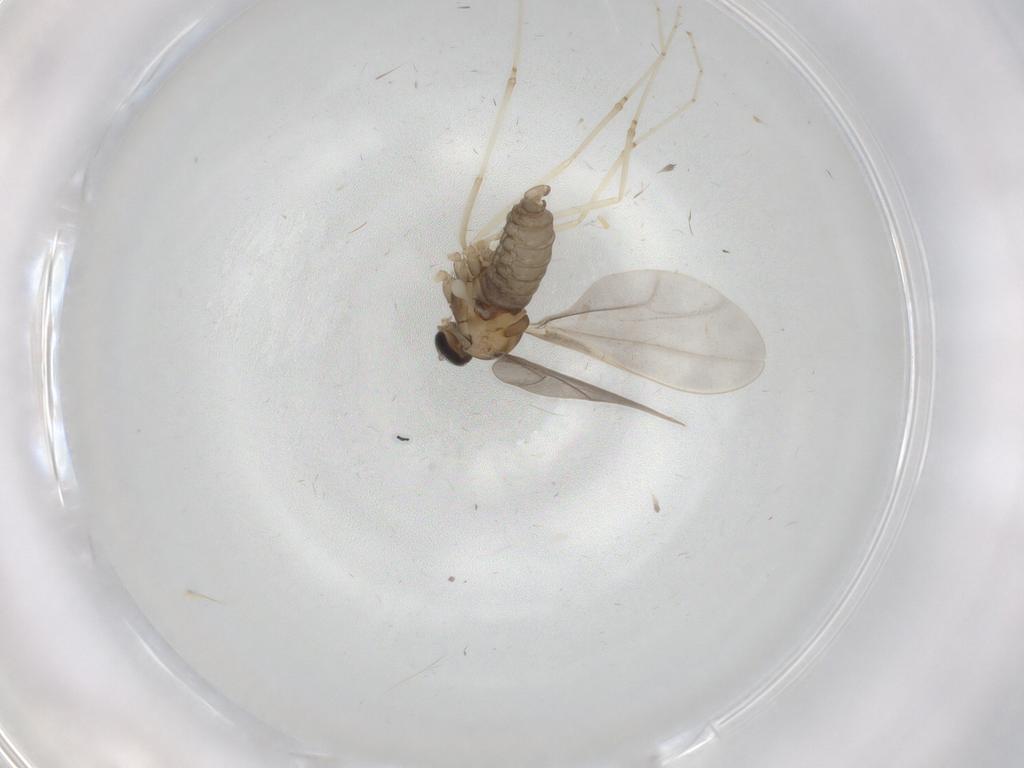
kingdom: Animalia
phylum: Arthropoda
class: Insecta
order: Diptera
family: Cecidomyiidae
